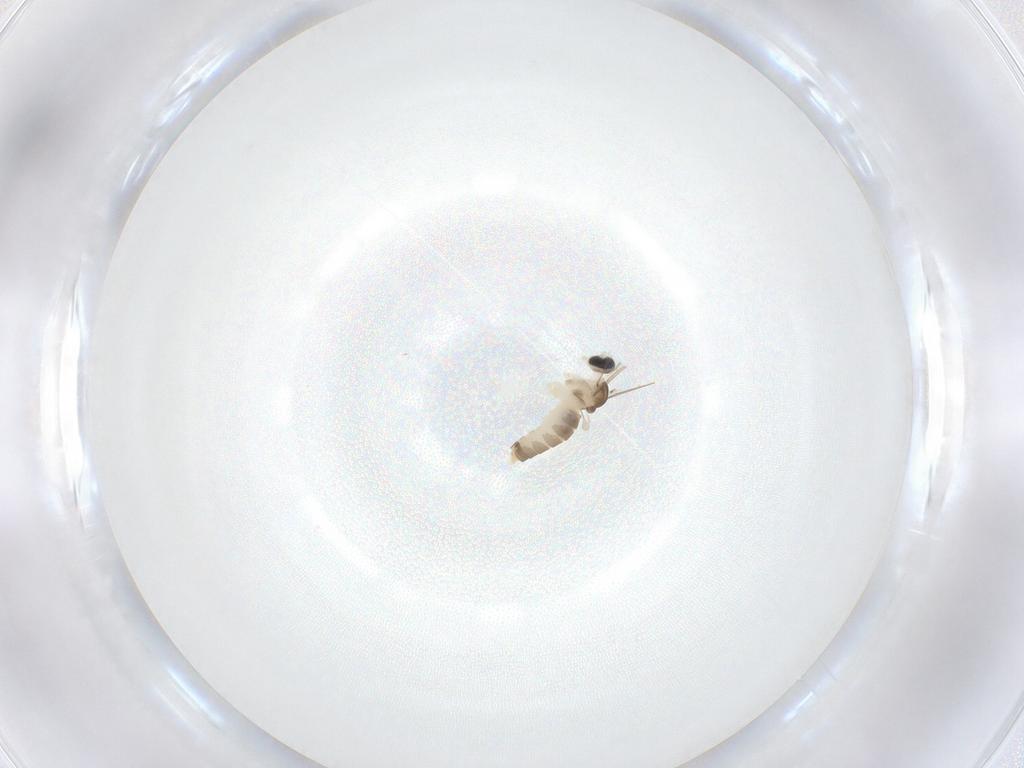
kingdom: Animalia
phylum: Arthropoda
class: Insecta
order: Diptera
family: Cecidomyiidae
